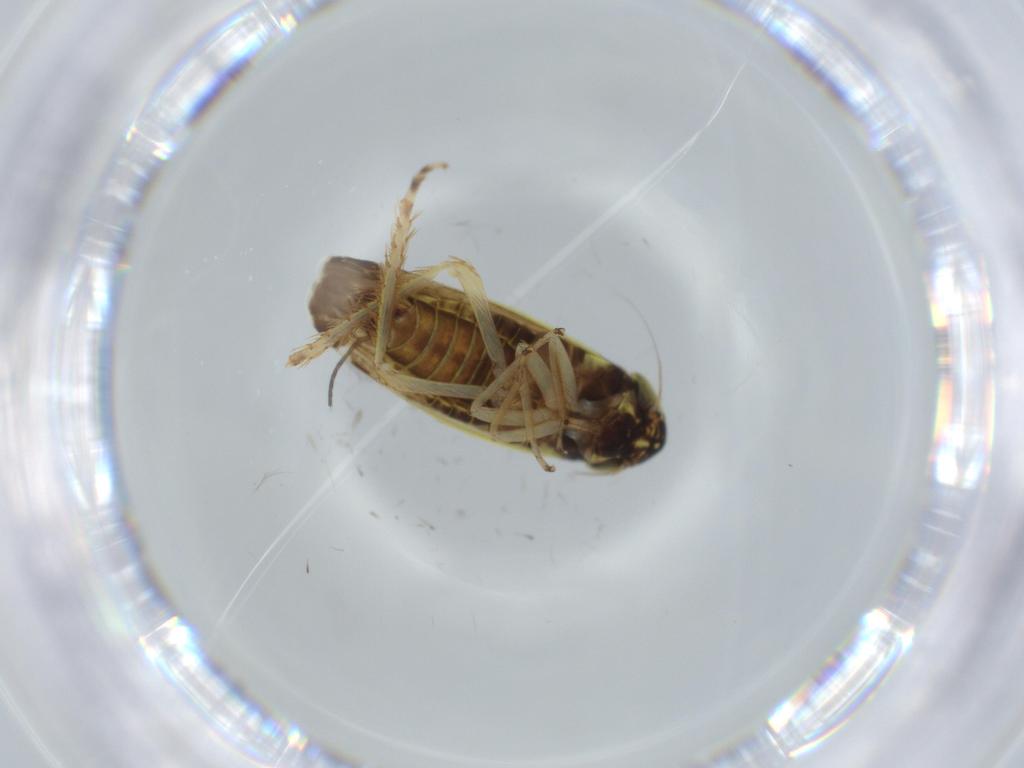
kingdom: Animalia
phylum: Arthropoda
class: Insecta
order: Hemiptera
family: Cicadellidae
